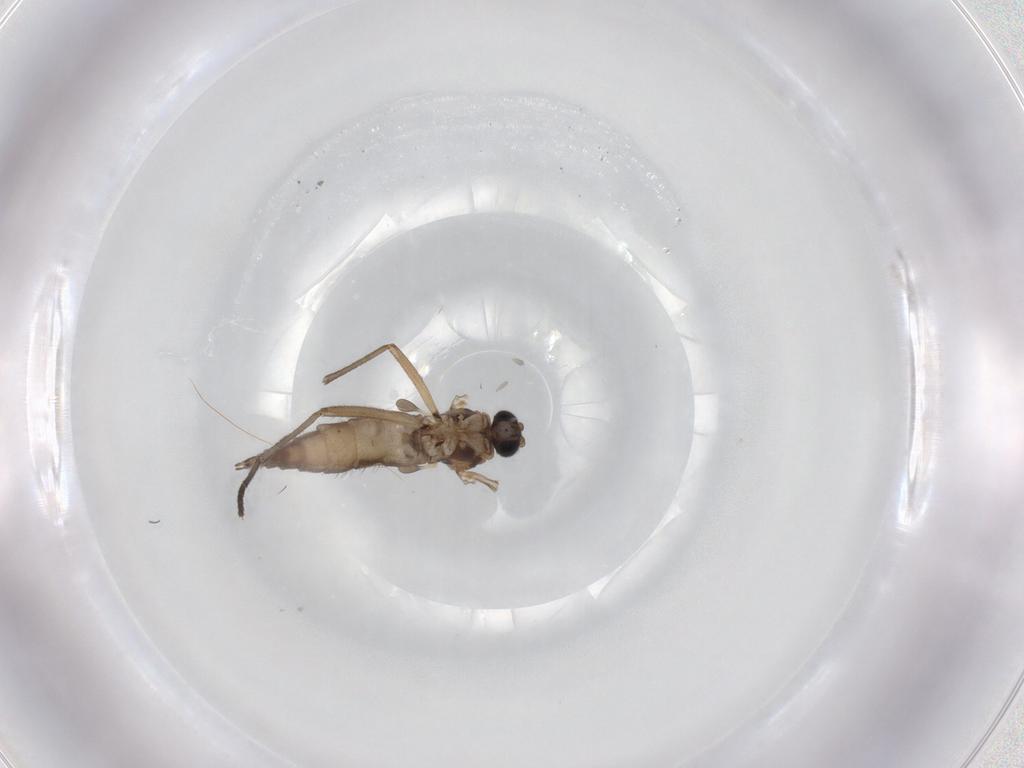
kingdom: Animalia
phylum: Arthropoda
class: Insecta
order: Diptera
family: Sciaridae
